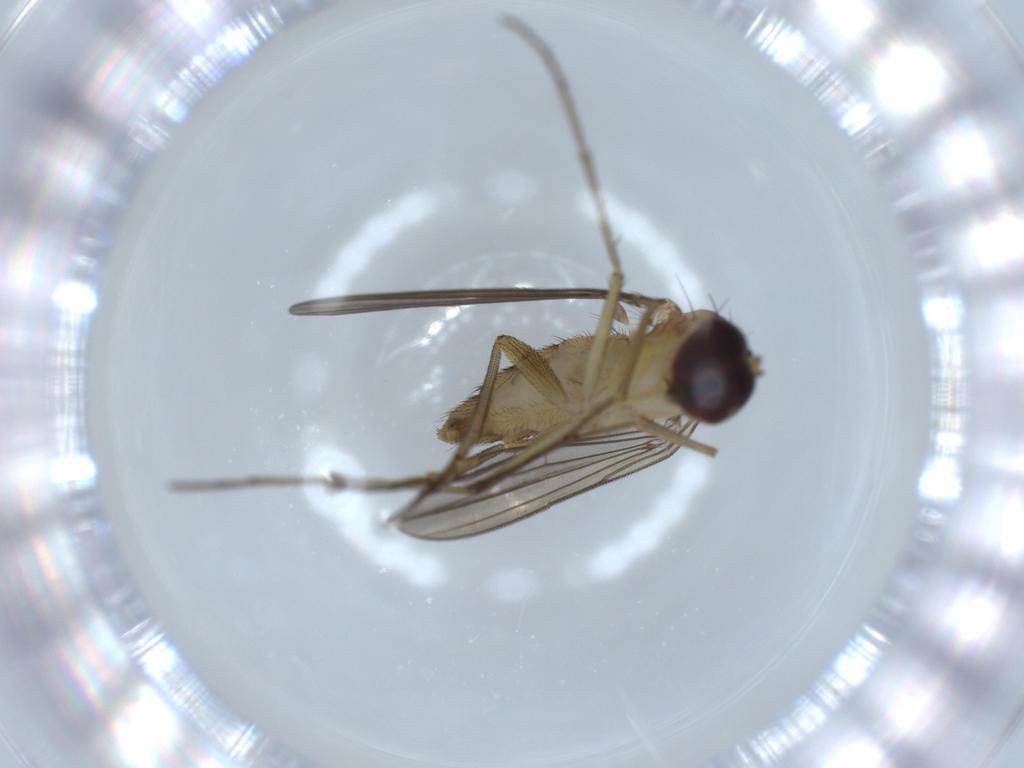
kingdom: Animalia
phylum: Arthropoda
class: Insecta
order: Diptera
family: Dolichopodidae
